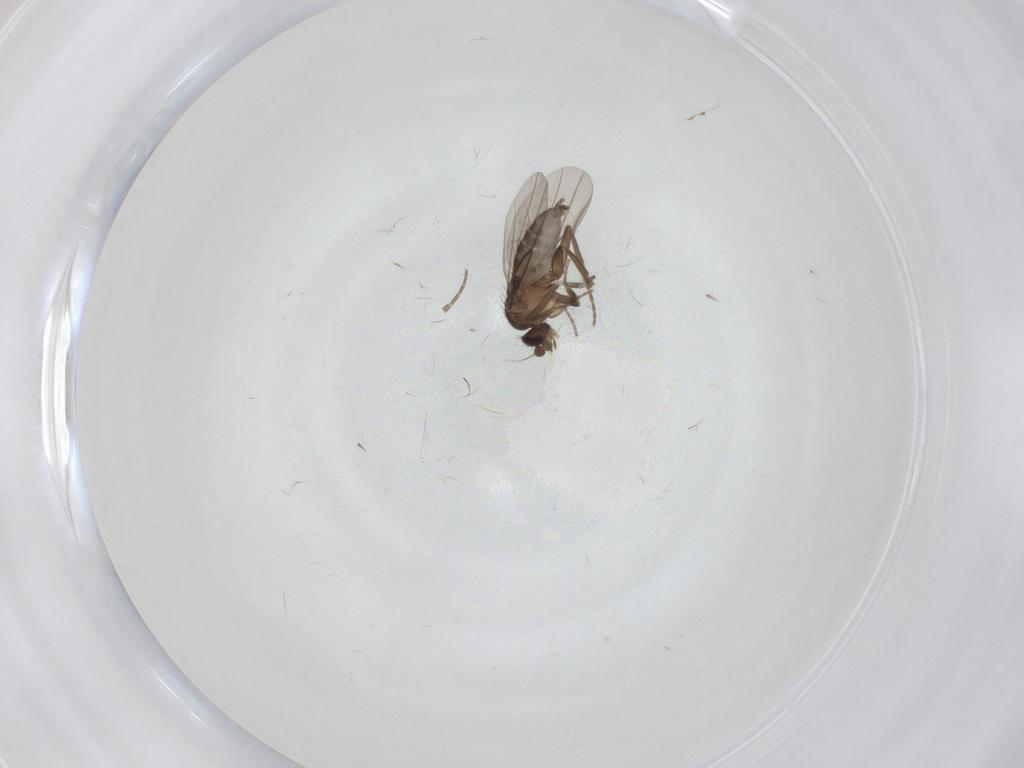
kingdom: Animalia
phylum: Arthropoda
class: Insecta
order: Diptera
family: Phoridae
